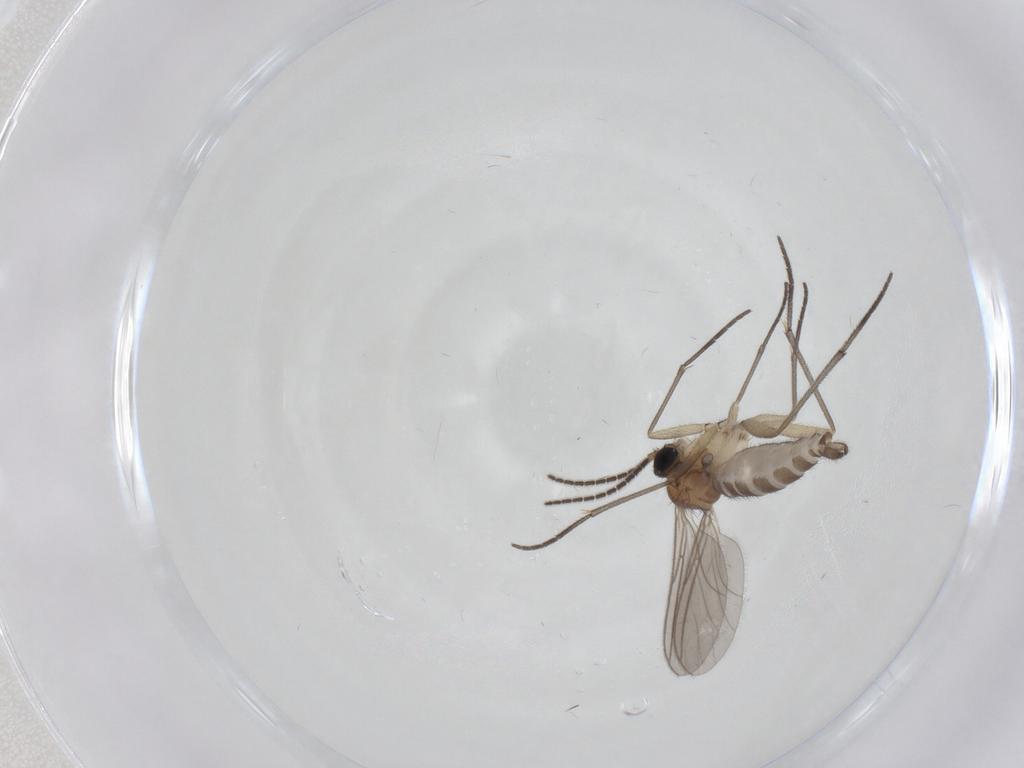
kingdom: Animalia
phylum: Arthropoda
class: Insecta
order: Diptera
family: Sciaridae
